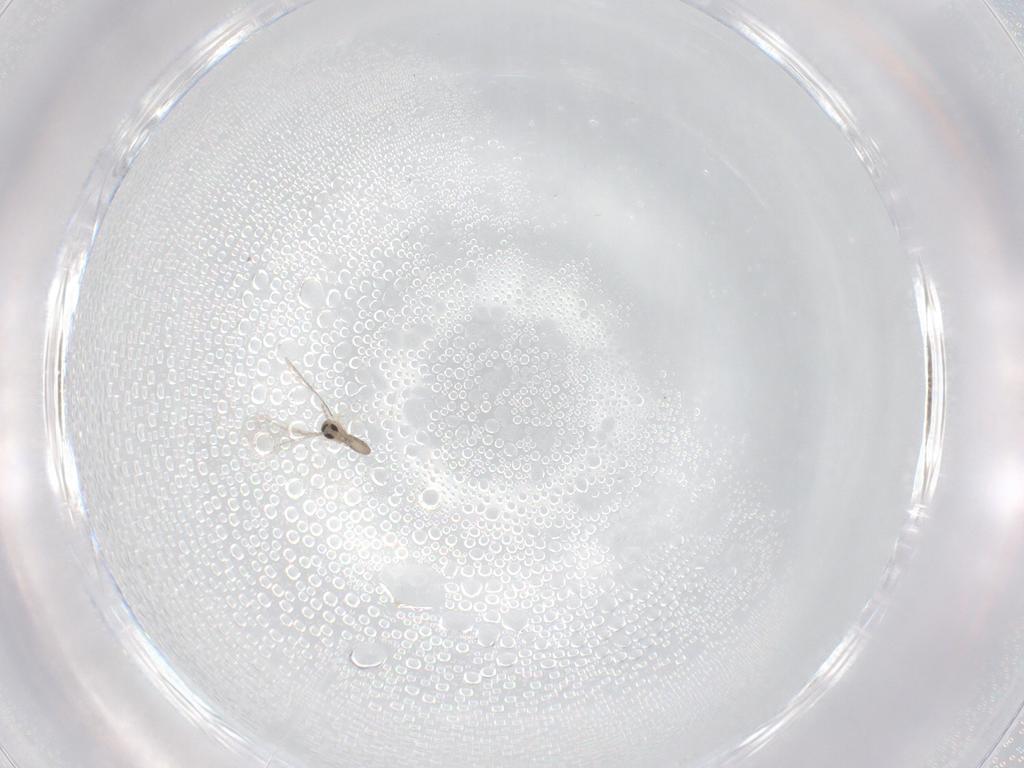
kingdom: Animalia
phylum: Arthropoda
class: Insecta
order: Diptera
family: Cecidomyiidae
